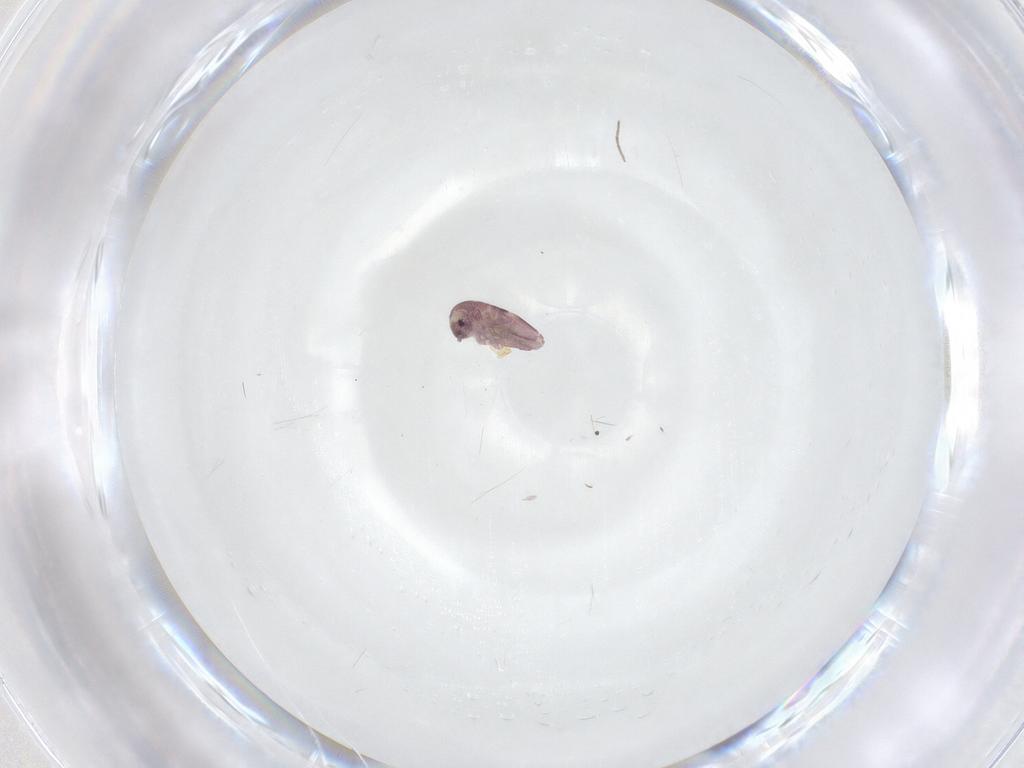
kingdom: Animalia
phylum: Arthropoda
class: Collembola
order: Entomobryomorpha
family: Entomobryidae
